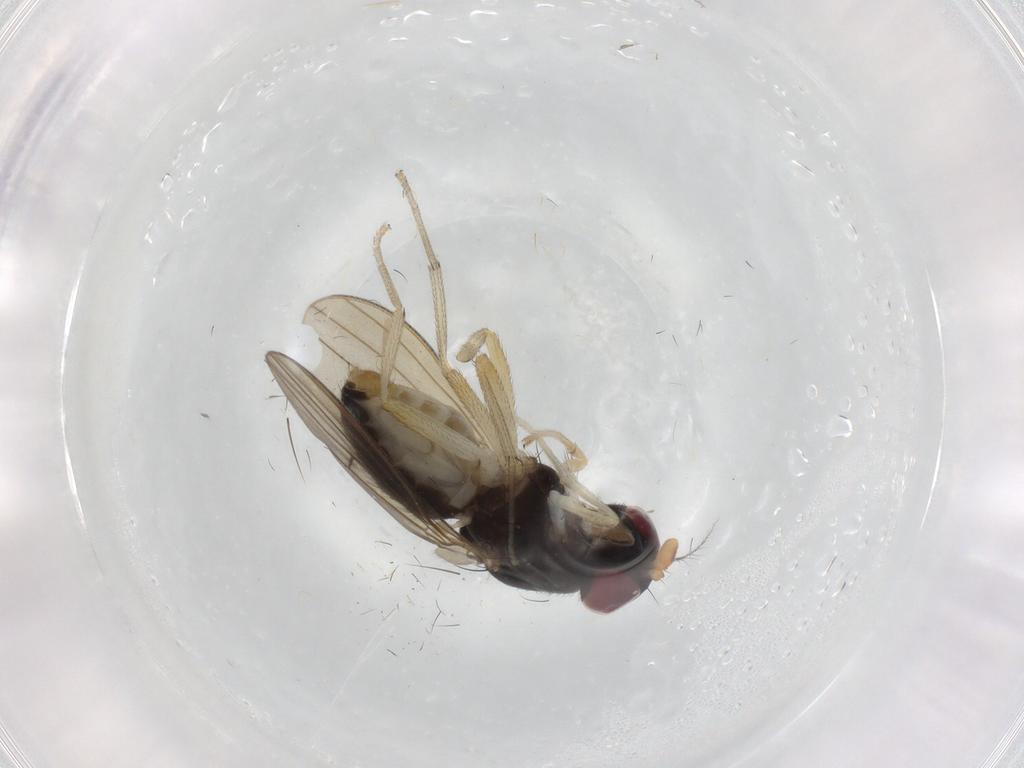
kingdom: Animalia
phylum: Arthropoda
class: Insecta
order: Diptera
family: Syrphidae
